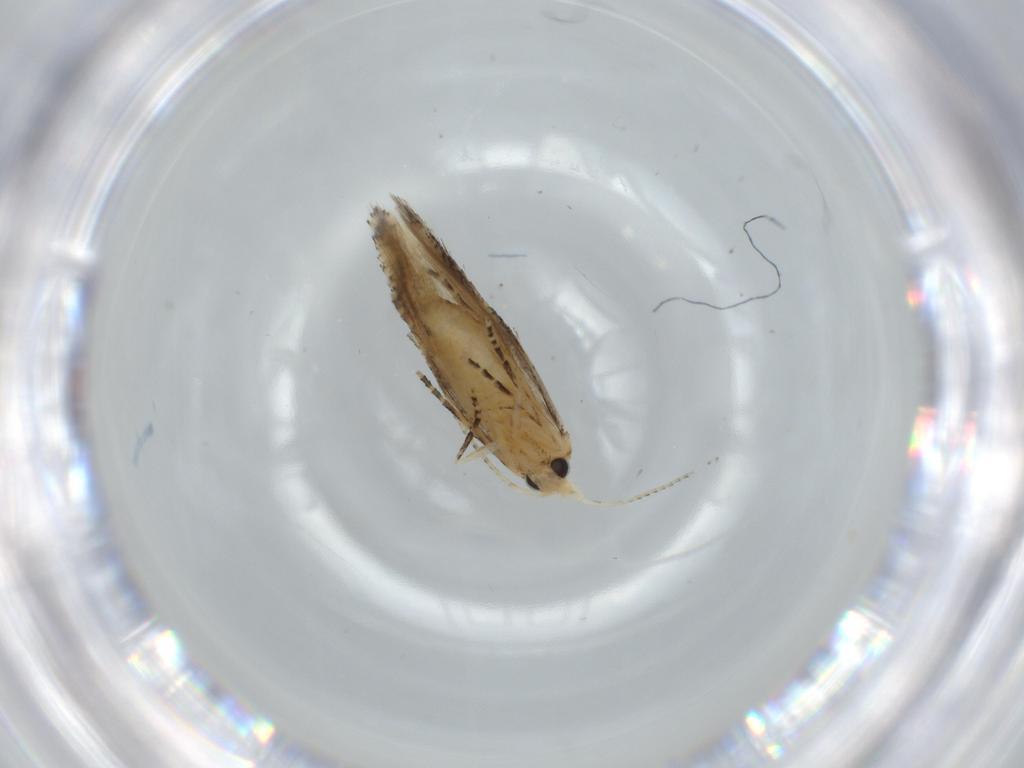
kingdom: Animalia
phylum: Arthropoda
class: Insecta
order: Lepidoptera
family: Bucculatricidae
